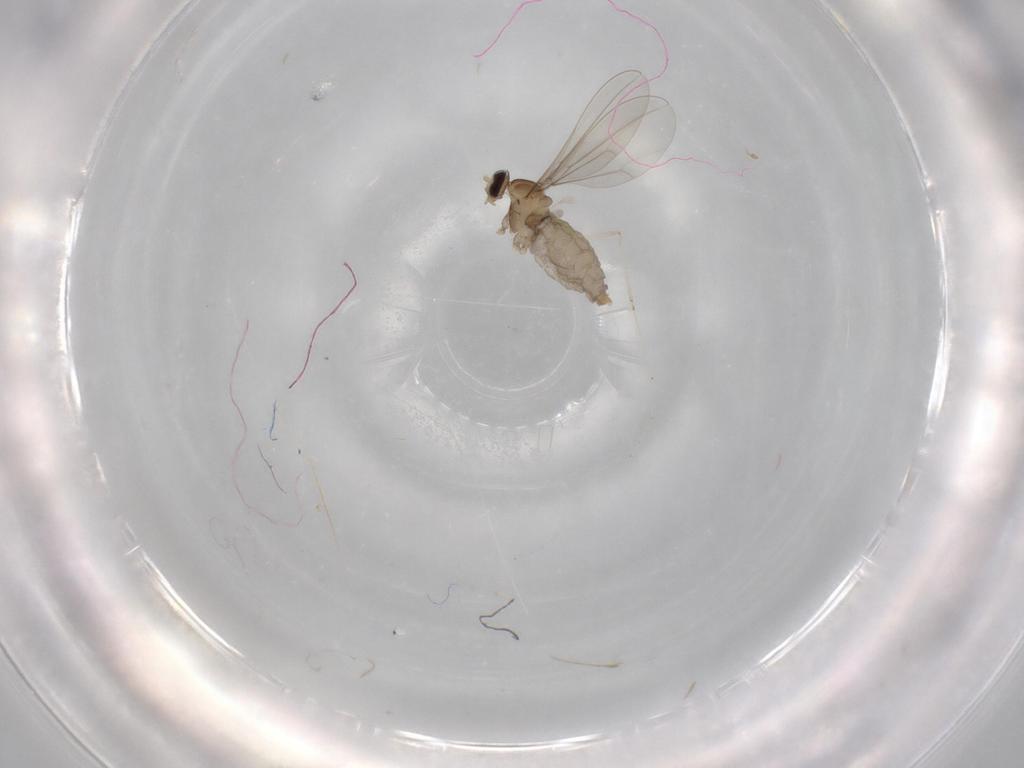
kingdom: Animalia
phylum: Arthropoda
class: Insecta
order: Diptera
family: Cecidomyiidae
